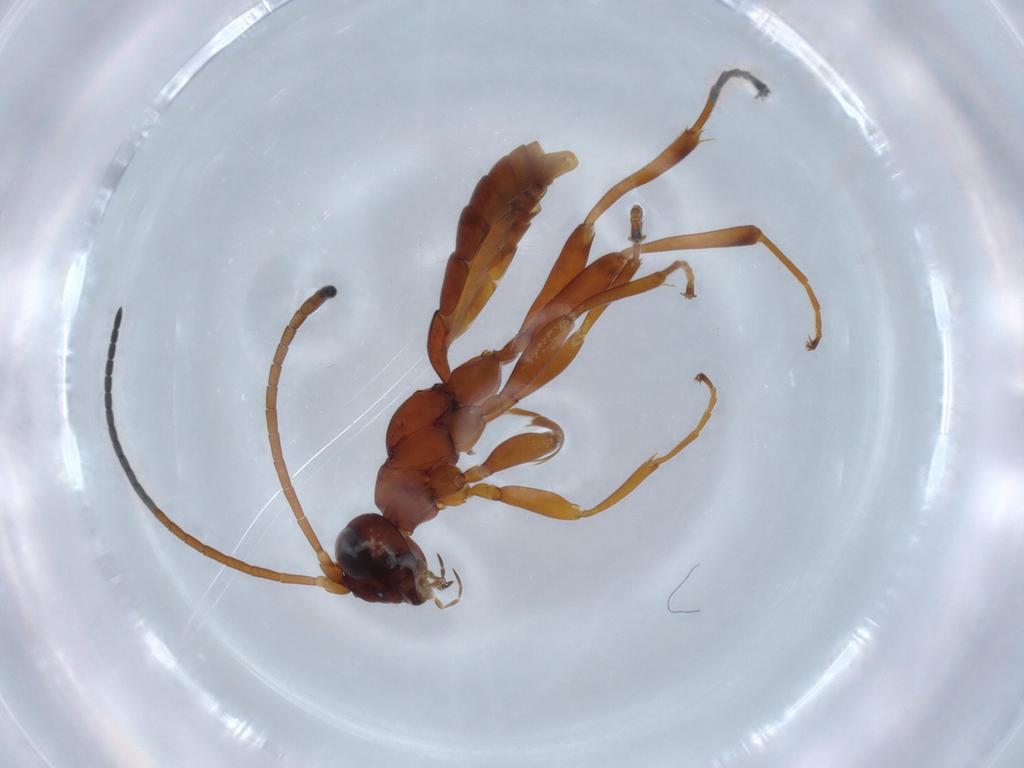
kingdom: Animalia
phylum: Arthropoda
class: Insecta
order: Hymenoptera
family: Ichneumonidae
